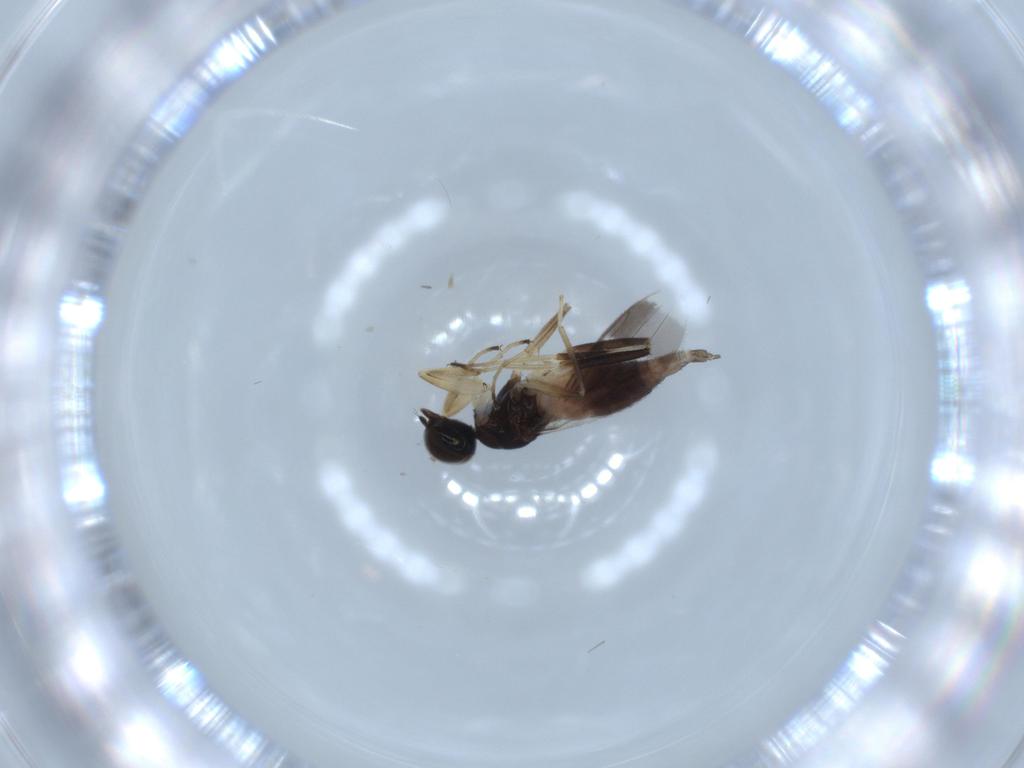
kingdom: Animalia
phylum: Arthropoda
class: Insecta
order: Diptera
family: Hybotidae
